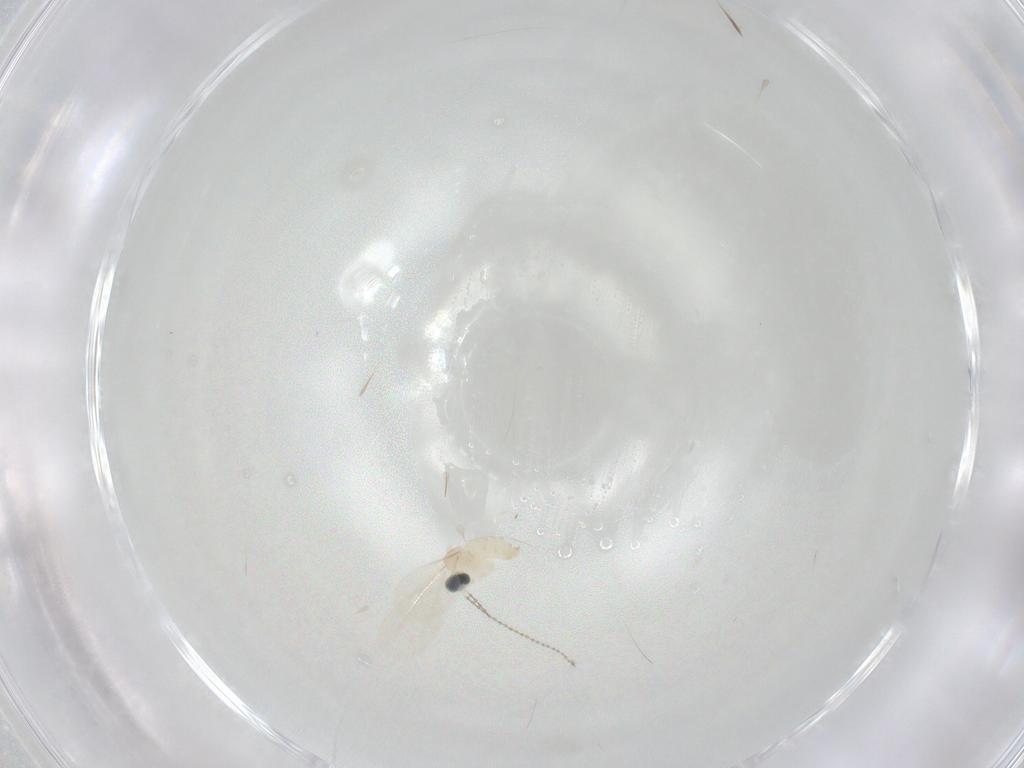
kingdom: Animalia
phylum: Arthropoda
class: Insecta
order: Diptera
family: Cecidomyiidae
